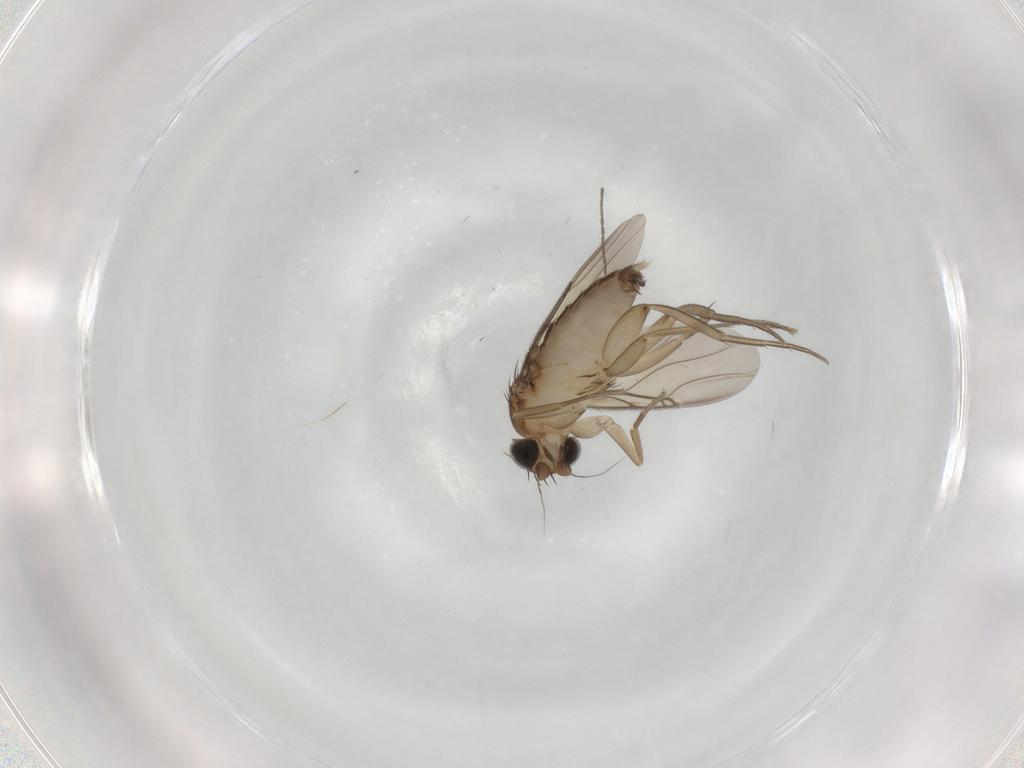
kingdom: Animalia
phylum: Arthropoda
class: Insecta
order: Diptera
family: Phoridae
